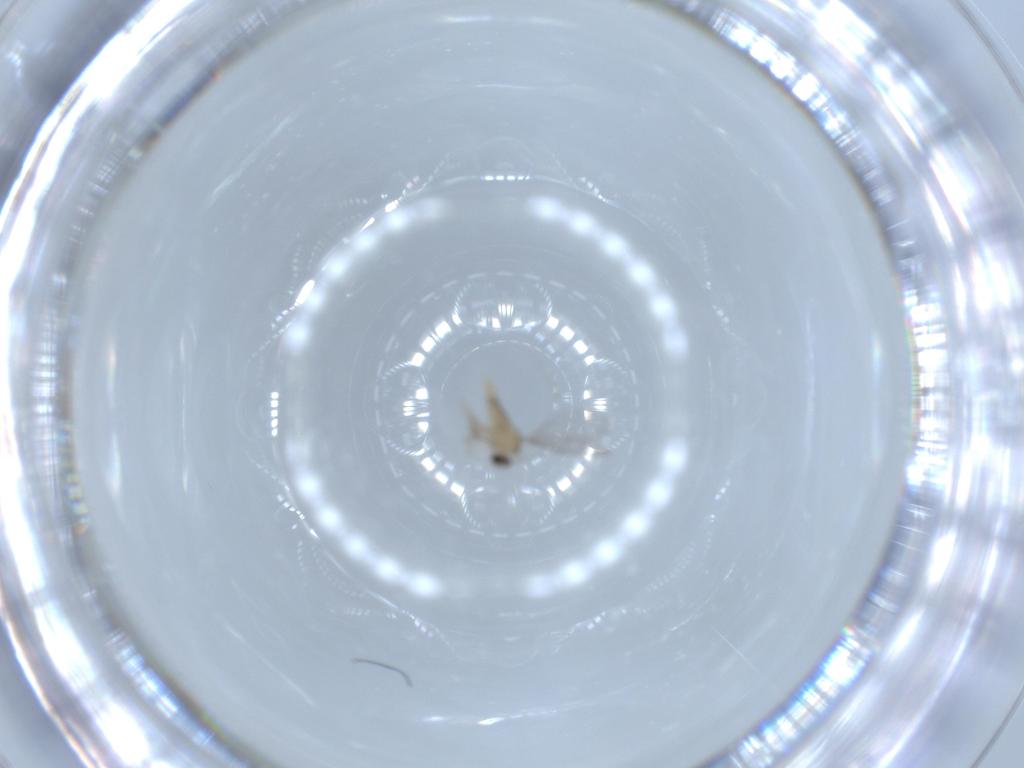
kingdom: Animalia
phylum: Arthropoda
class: Insecta
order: Diptera
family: Cecidomyiidae
